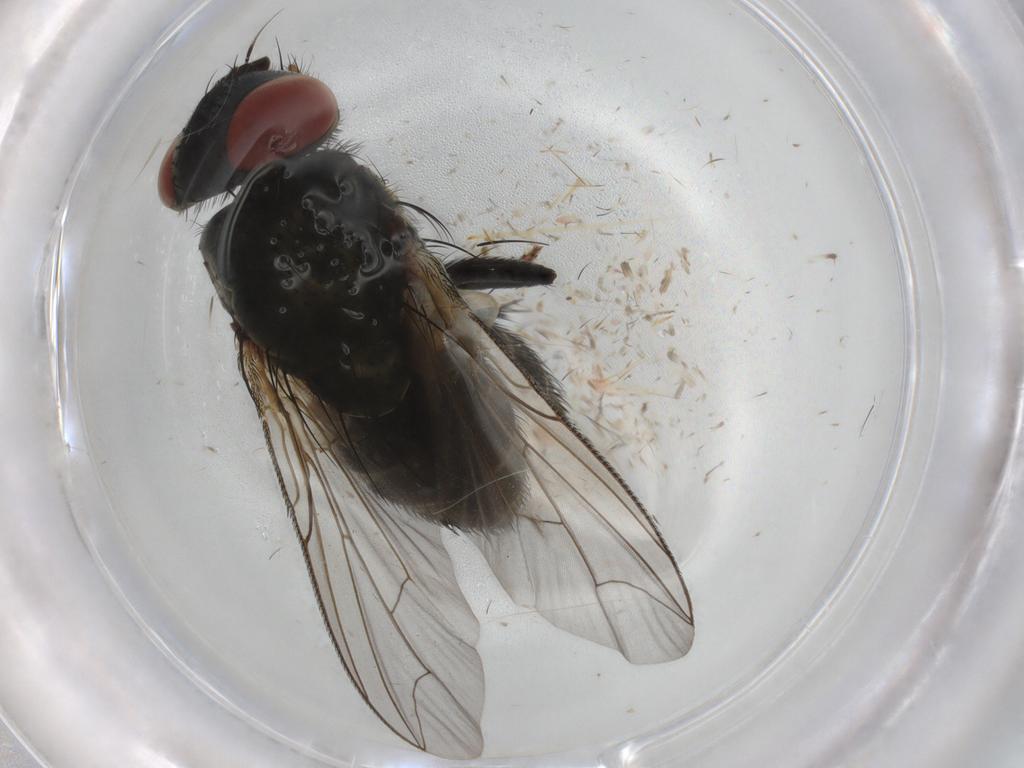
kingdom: Animalia
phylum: Arthropoda
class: Insecta
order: Diptera
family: Sarcophagidae
